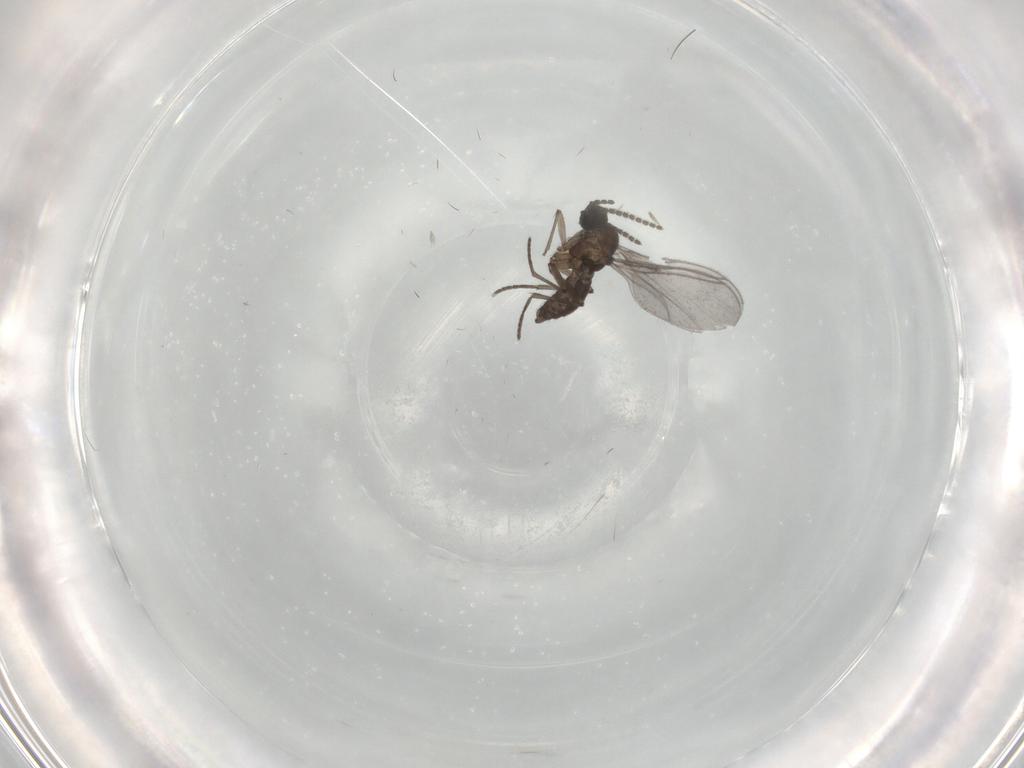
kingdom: Animalia
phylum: Arthropoda
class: Insecta
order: Diptera
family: Sciaridae
